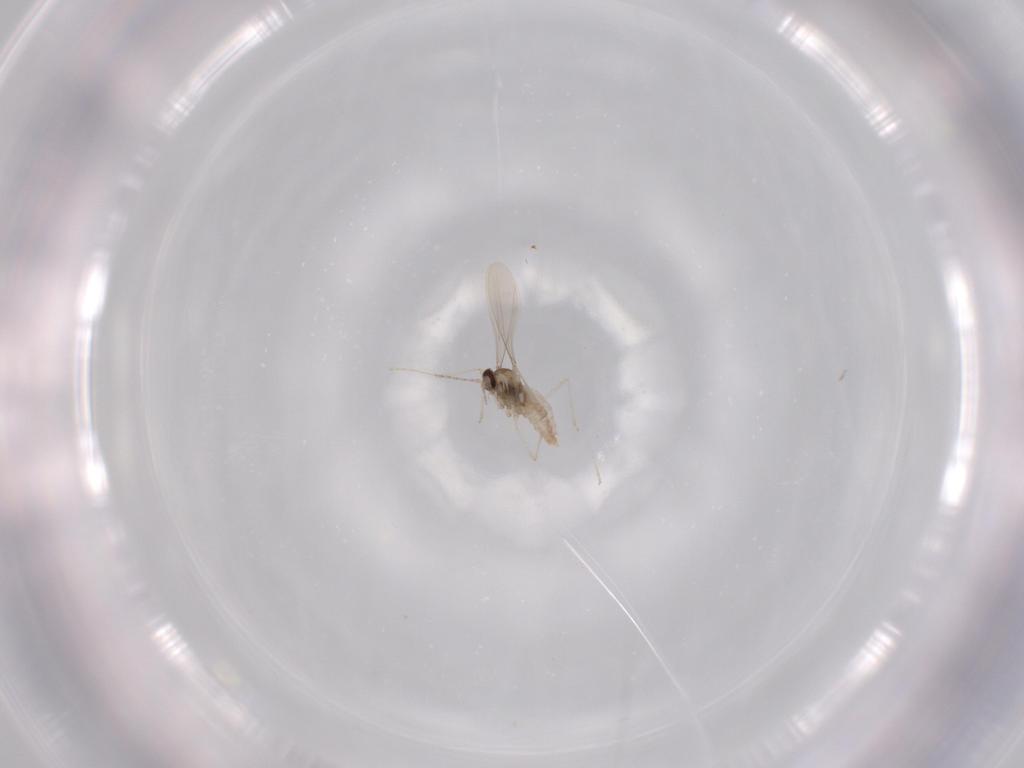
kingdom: Animalia
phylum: Arthropoda
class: Insecta
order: Diptera
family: Cecidomyiidae
